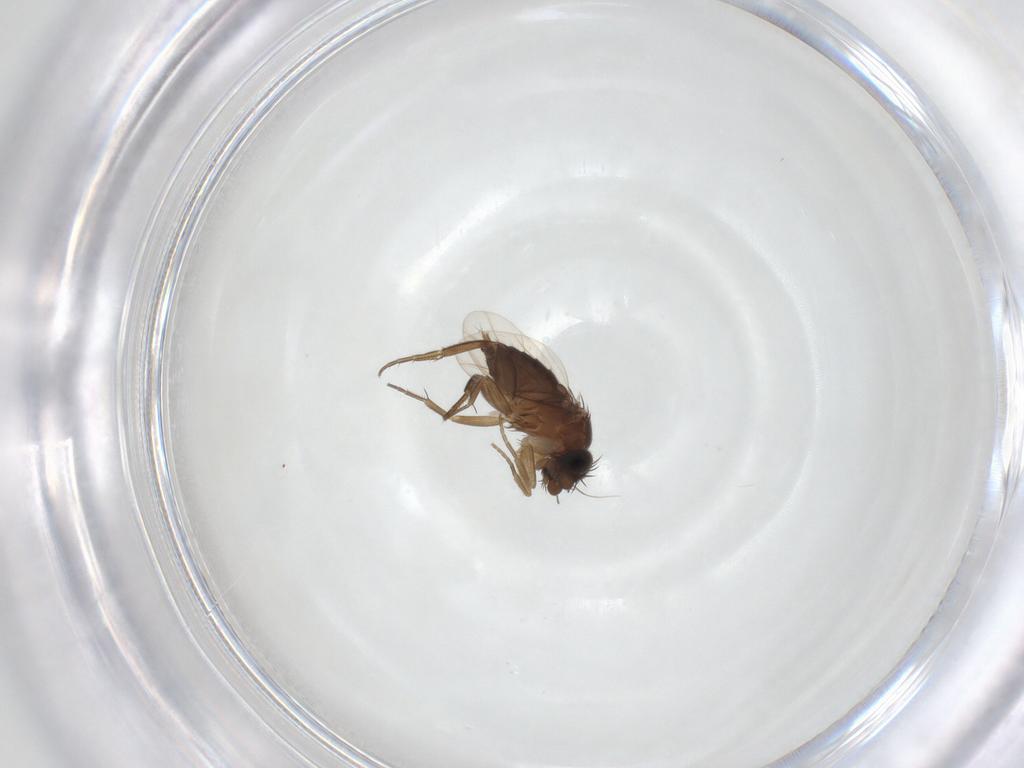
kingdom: Animalia
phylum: Arthropoda
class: Insecta
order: Diptera
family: Phoridae
